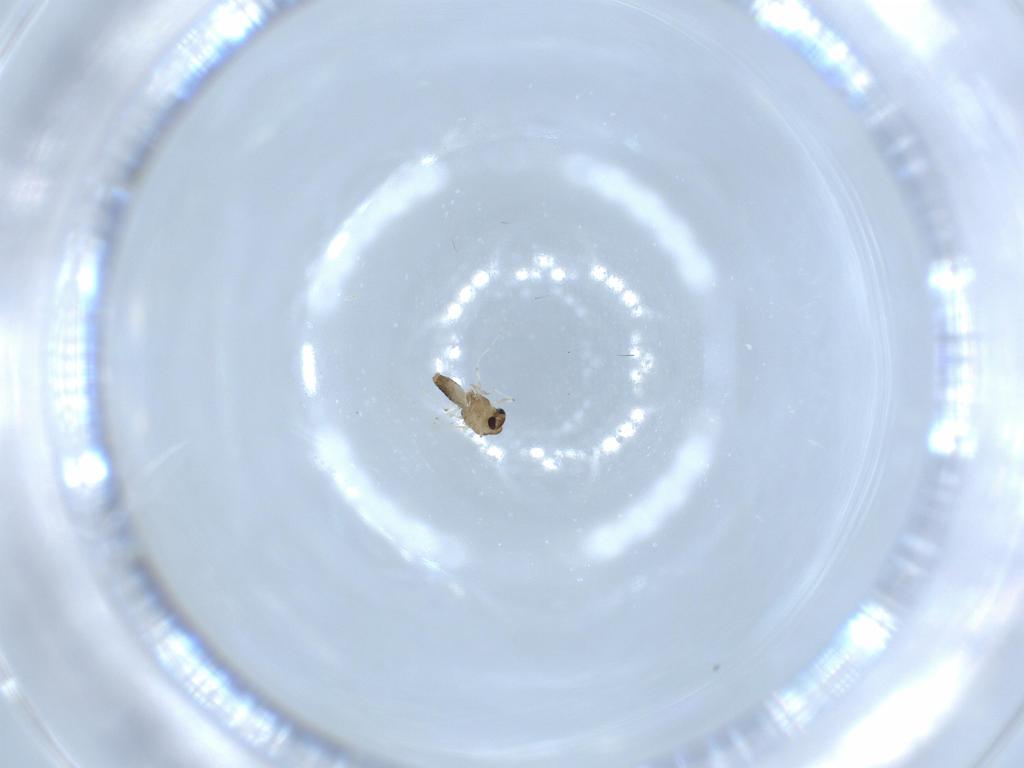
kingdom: Animalia
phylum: Arthropoda
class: Insecta
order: Diptera
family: Chironomidae
